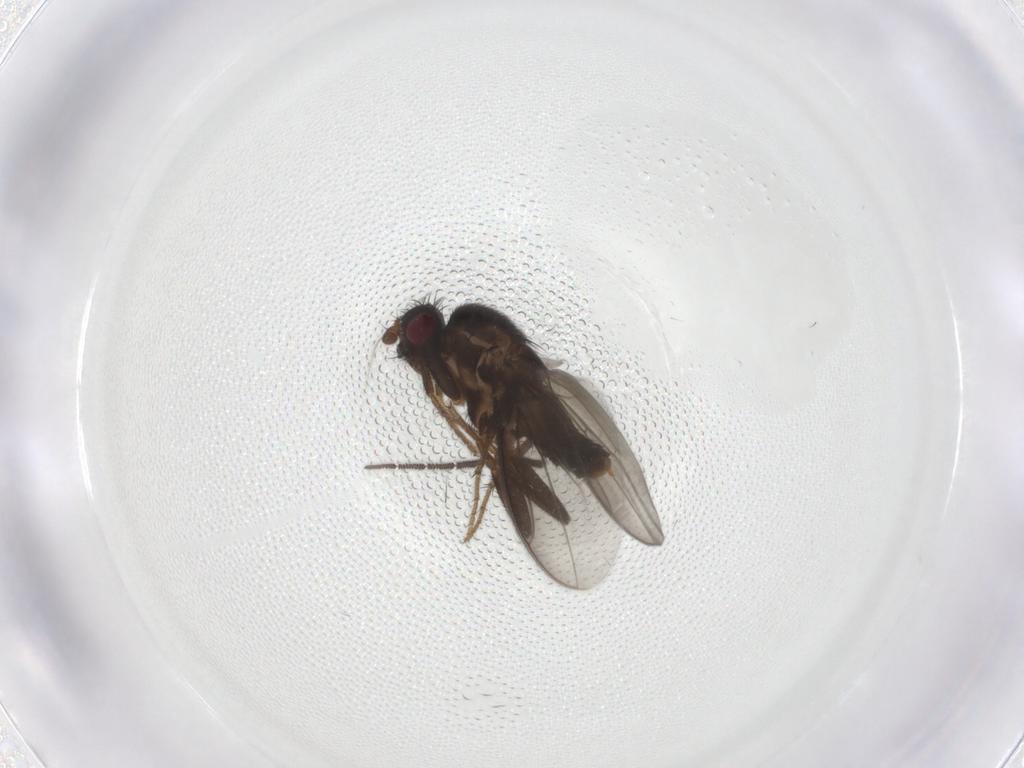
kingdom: Animalia
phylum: Arthropoda
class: Insecta
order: Diptera
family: Sphaeroceridae
